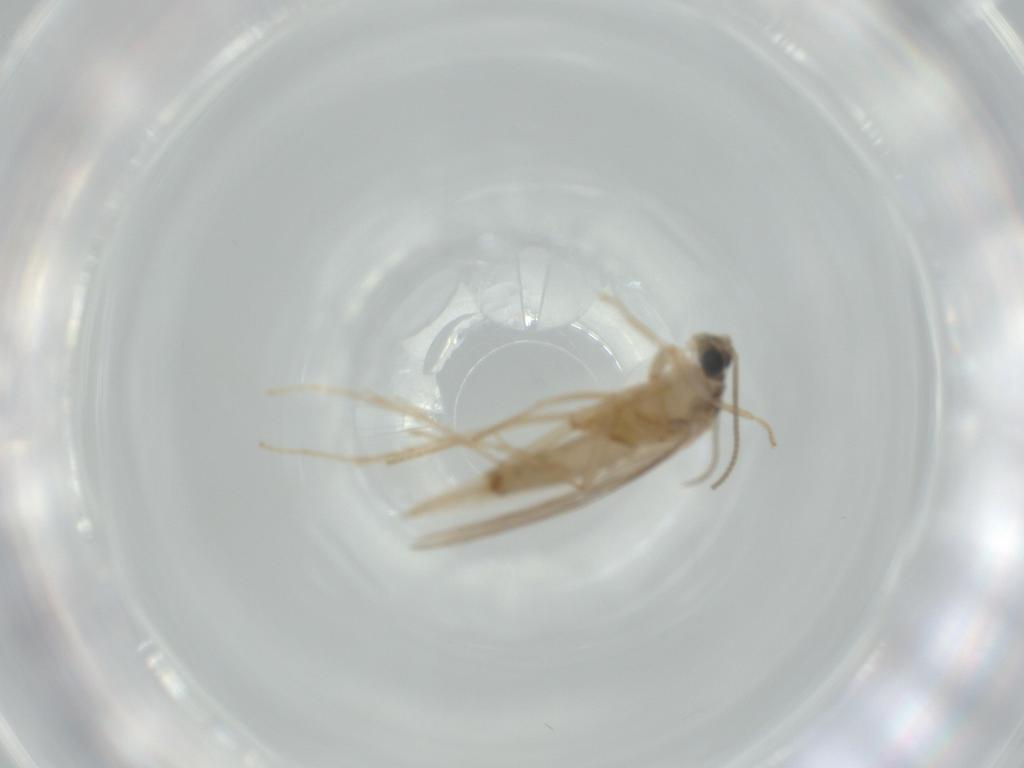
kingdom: Animalia
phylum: Arthropoda
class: Insecta
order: Diptera
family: Chironomidae
